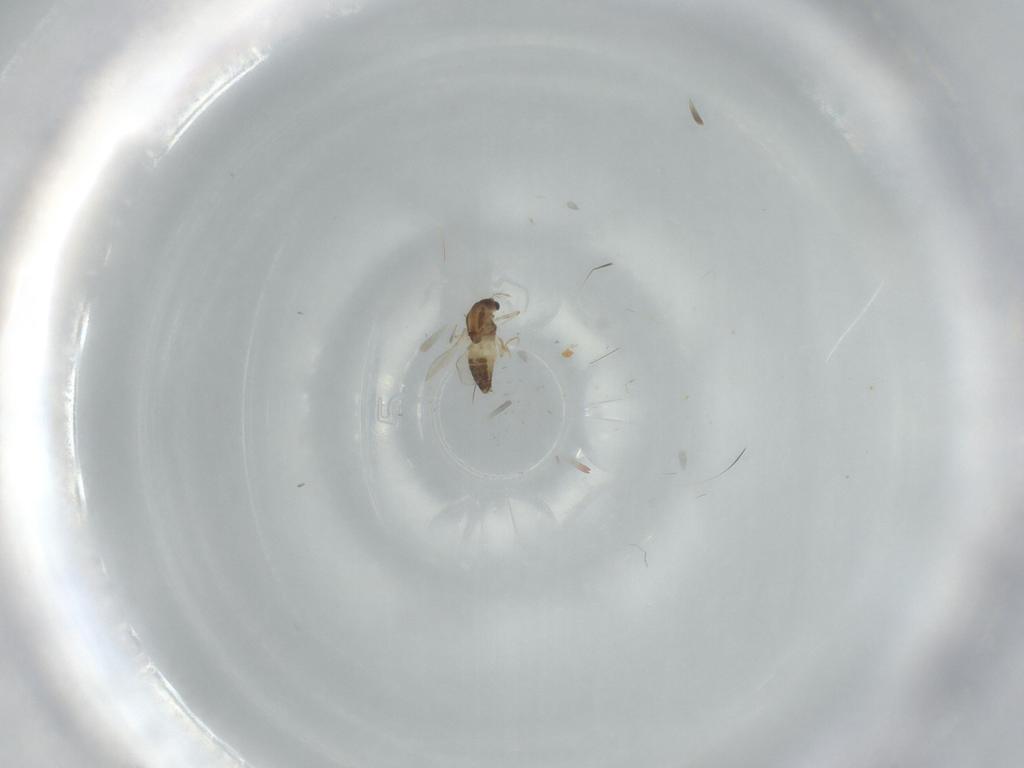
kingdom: Animalia
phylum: Arthropoda
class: Insecta
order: Diptera
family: Chironomidae
